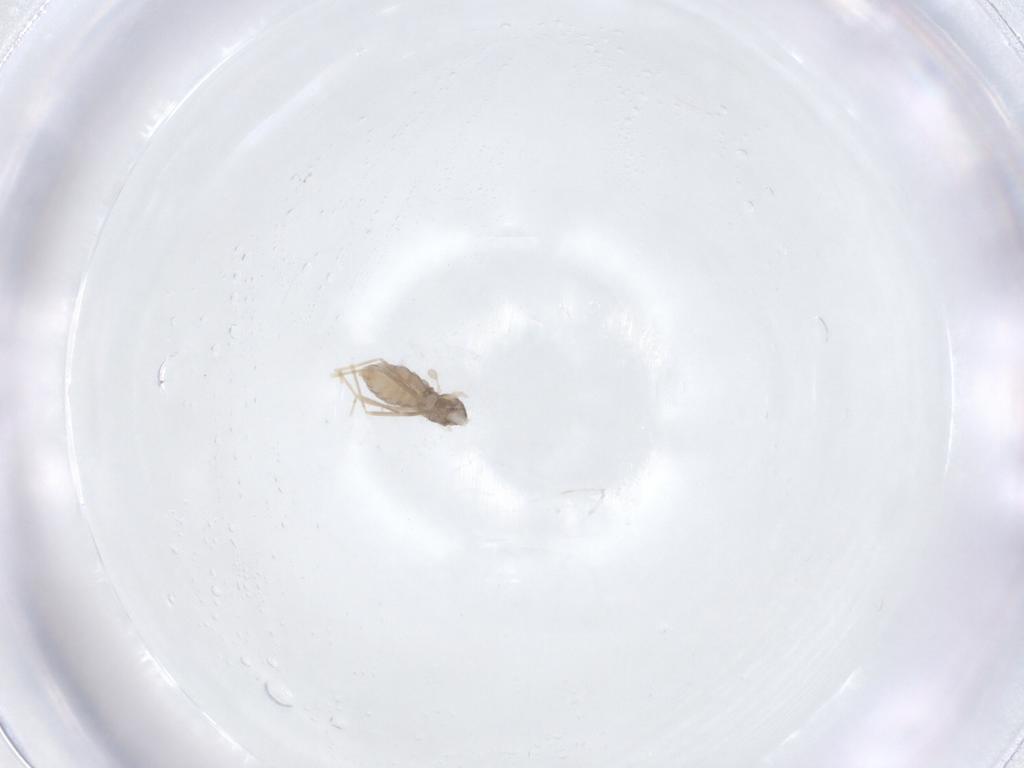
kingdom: Animalia
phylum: Arthropoda
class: Insecta
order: Diptera
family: Cecidomyiidae
